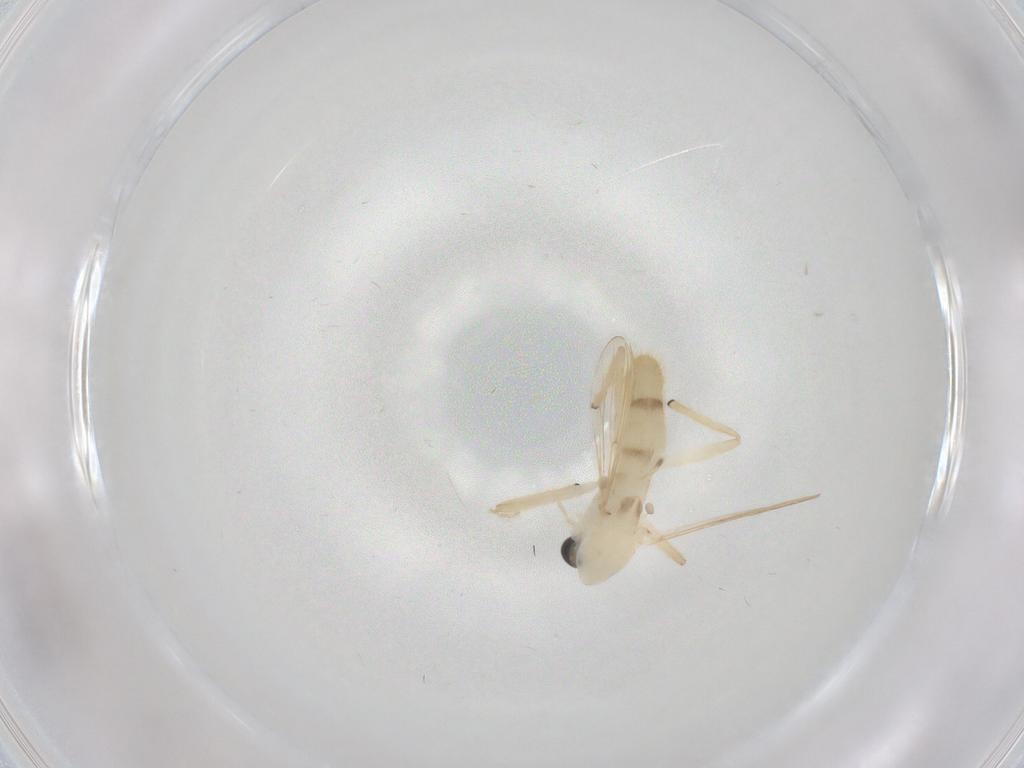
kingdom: Animalia
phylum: Arthropoda
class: Insecta
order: Diptera
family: Chironomidae
